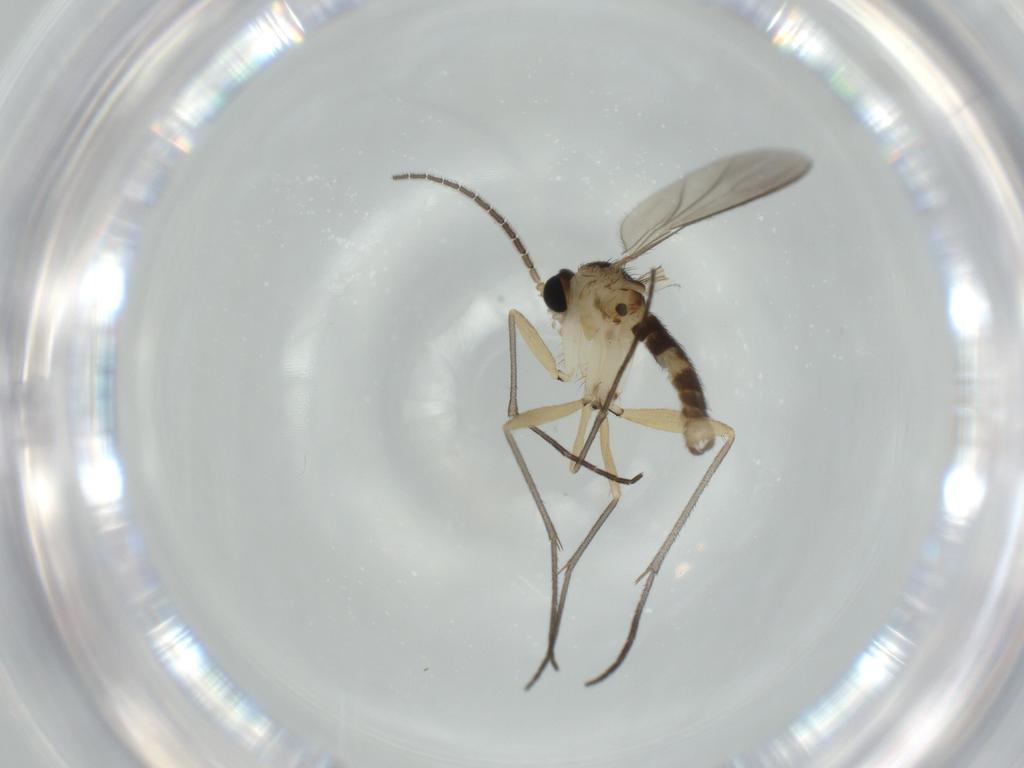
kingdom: Animalia
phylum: Arthropoda
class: Insecta
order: Diptera
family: Sciaridae
